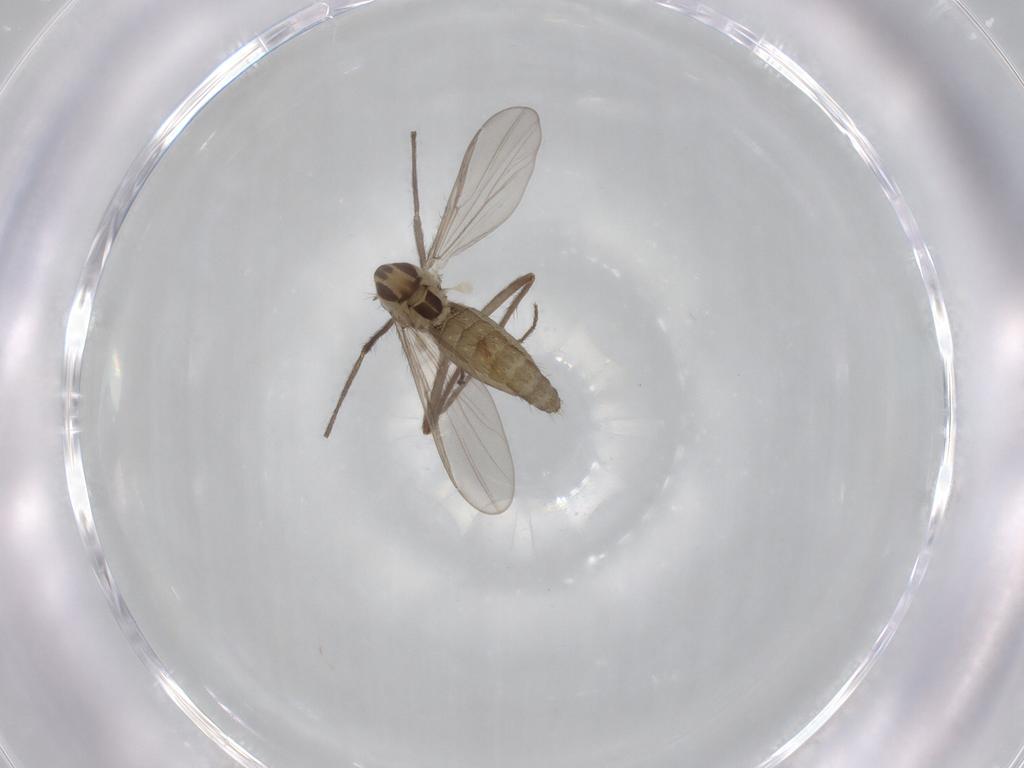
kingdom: Animalia
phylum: Arthropoda
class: Insecta
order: Diptera
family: Chironomidae
